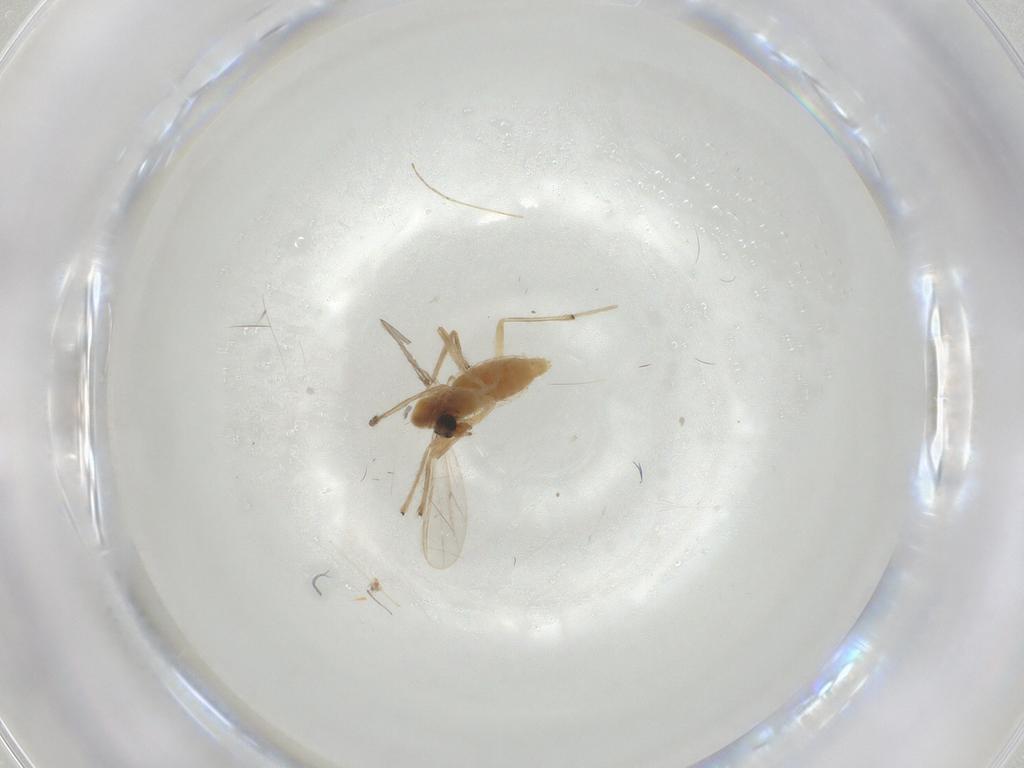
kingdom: Animalia
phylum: Arthropoda
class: Insecta
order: Diptera
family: Chironomidae
